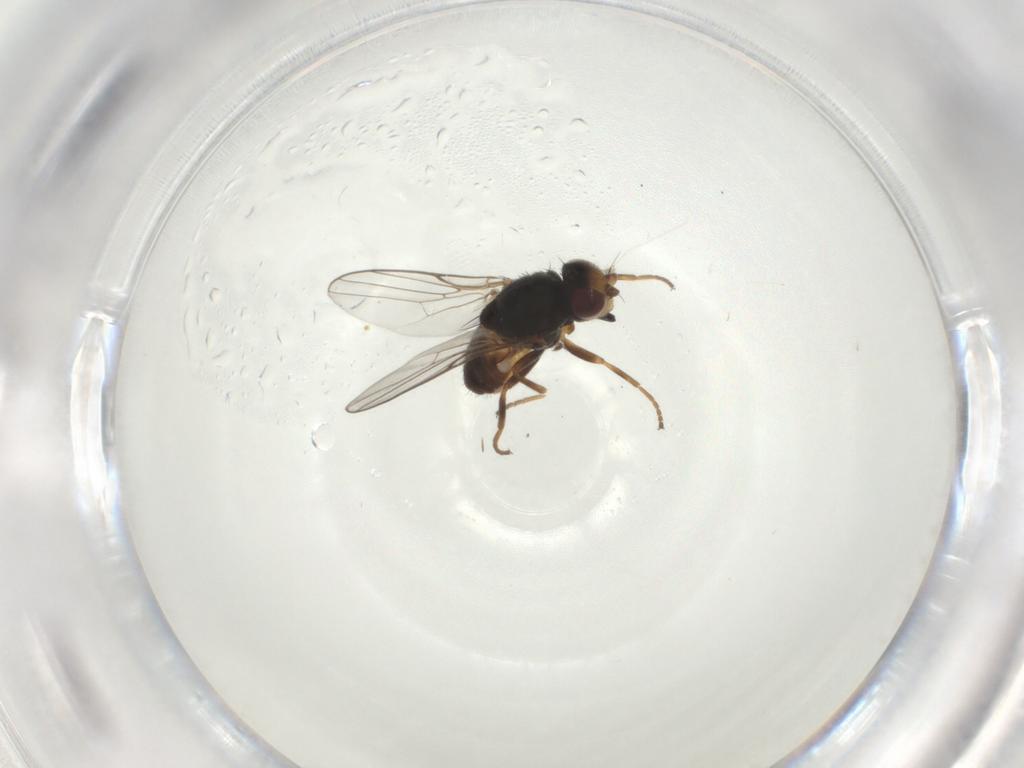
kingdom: Animalia
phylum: Arthropoda
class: Insecta
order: Diptera
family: Chloropidae
